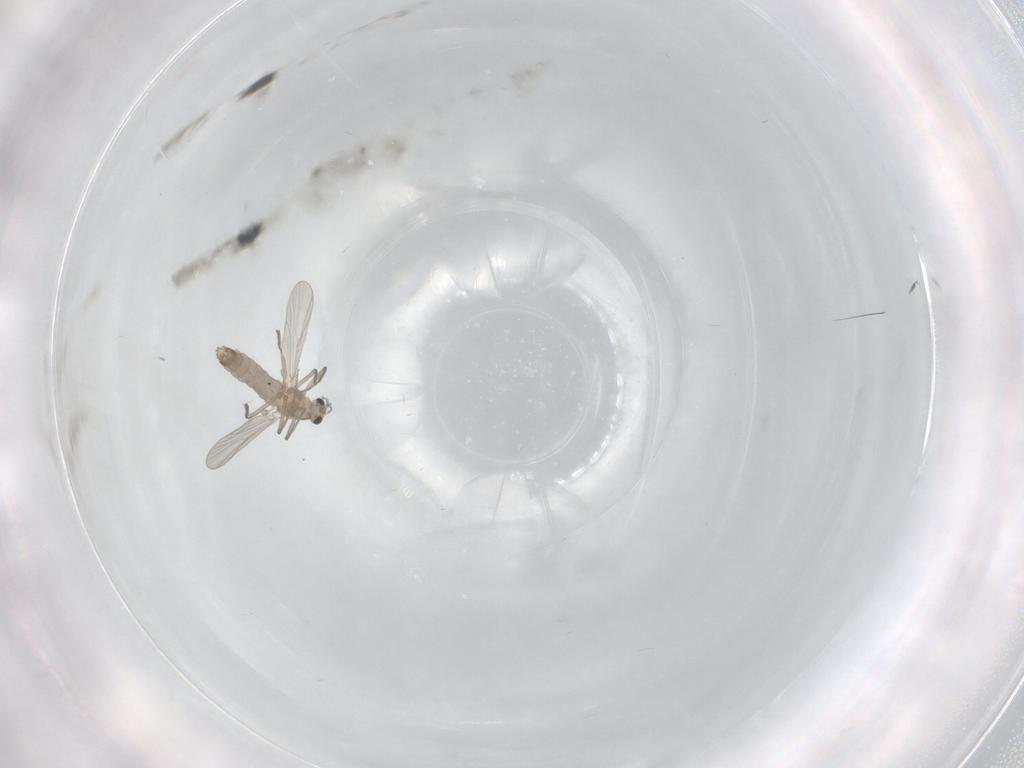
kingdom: Animalia
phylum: Arthropoda
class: Insecta
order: Diptera
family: Chironomidae
